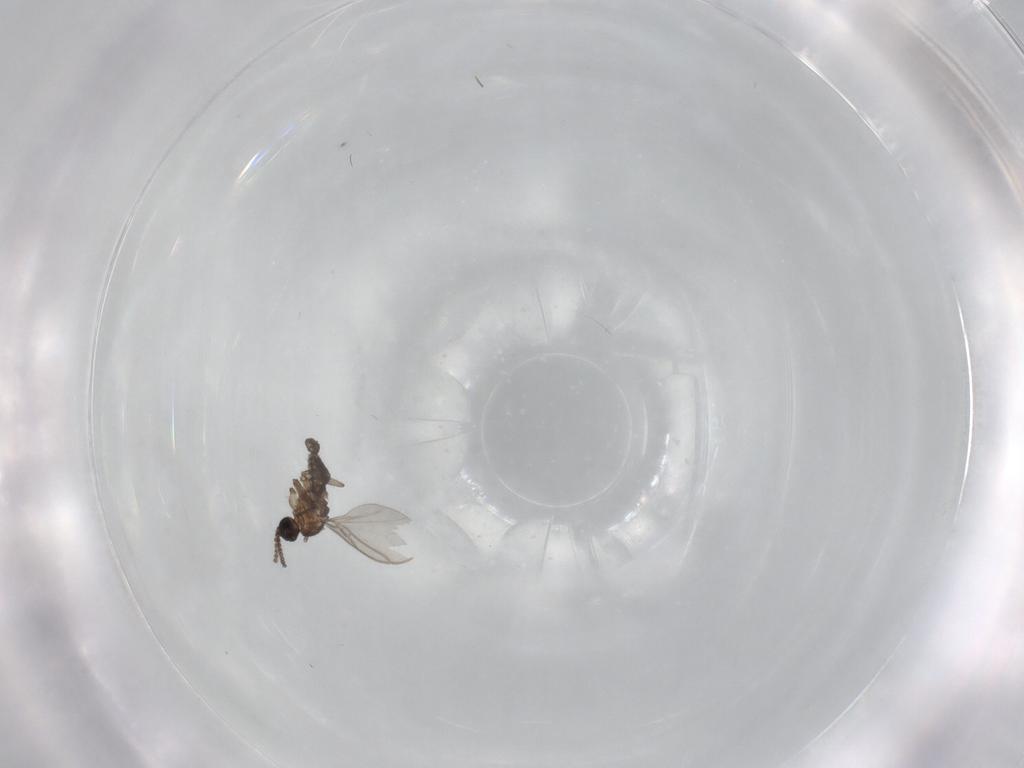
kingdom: Animalia
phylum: Arthropoda
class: Insecta
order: Diptera
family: Sciaridae
